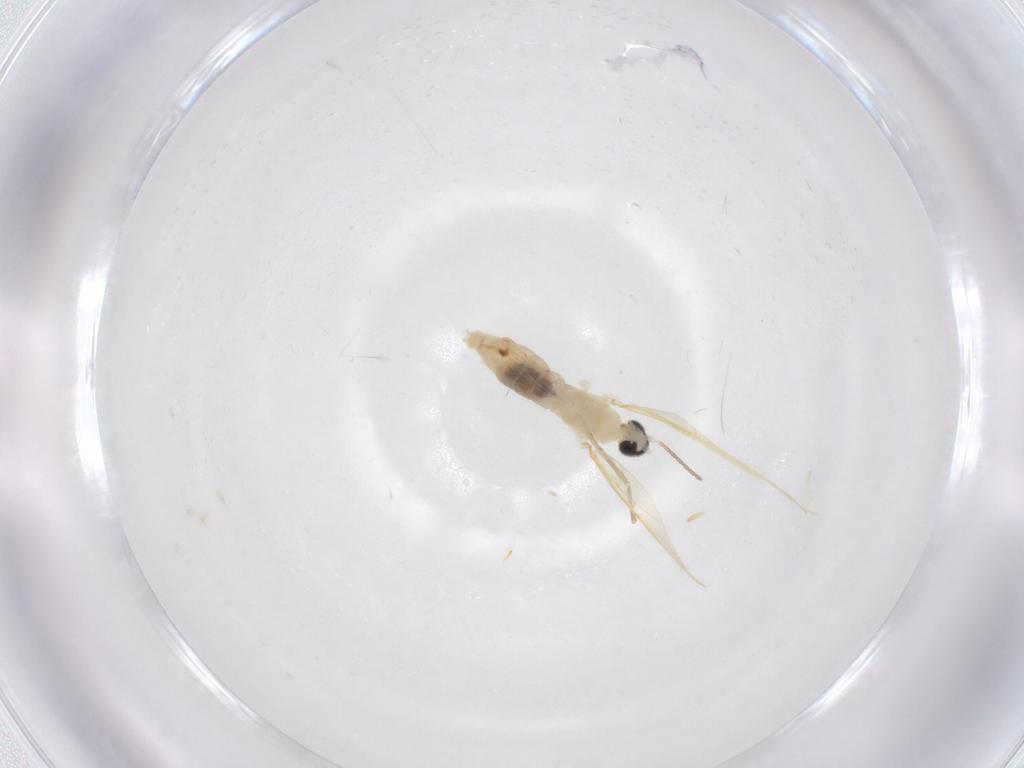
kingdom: Animalia
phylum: Arthropoda
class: Insecta
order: Diptera
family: Cecidomyiidae
